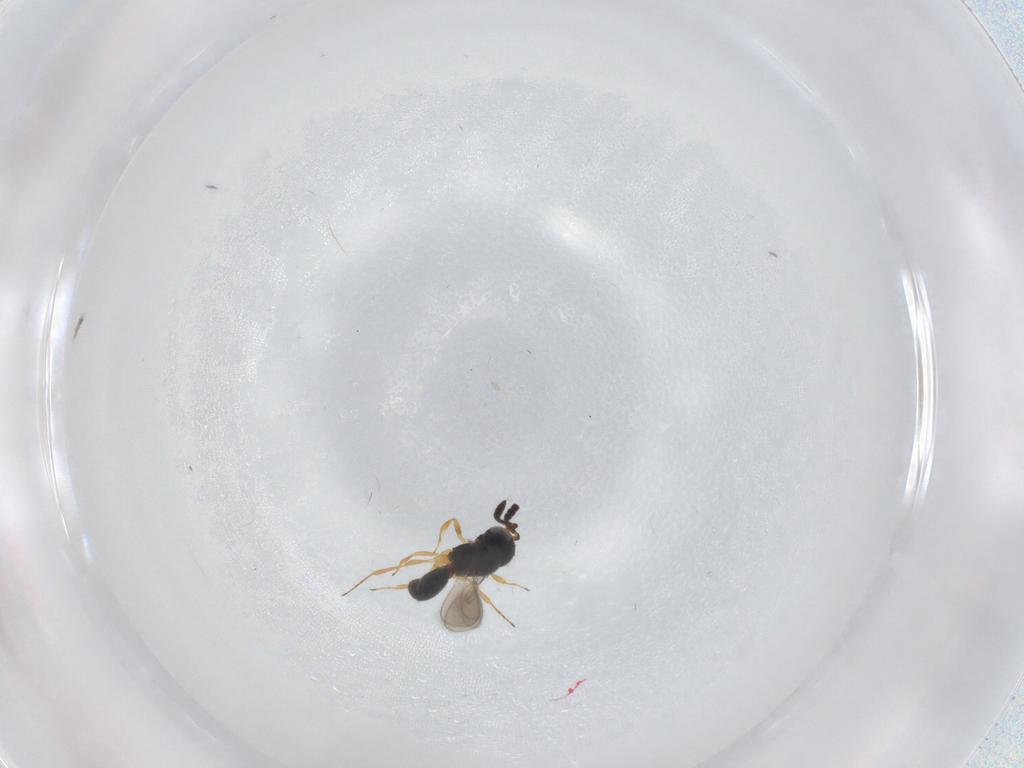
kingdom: Animalia
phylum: Arthropoda
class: Insecta
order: Hymenoptera
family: Scelionidae
